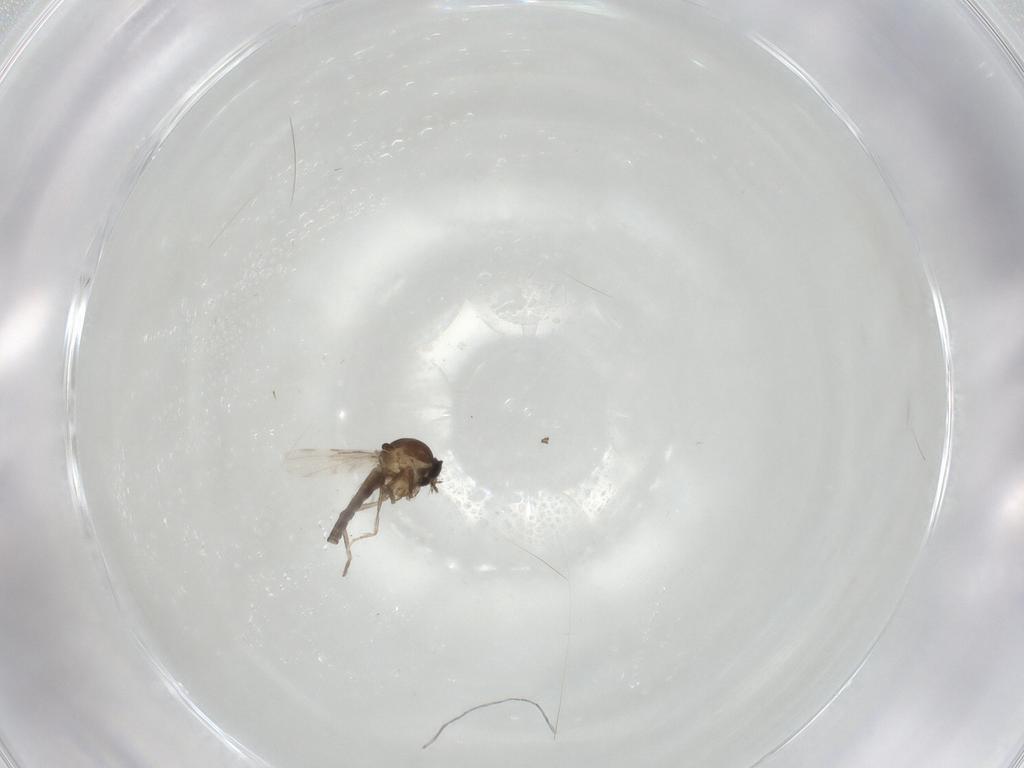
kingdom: Animalia
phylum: Arthropoda
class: Insecta
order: Diptera
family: Ceratopogonidae
